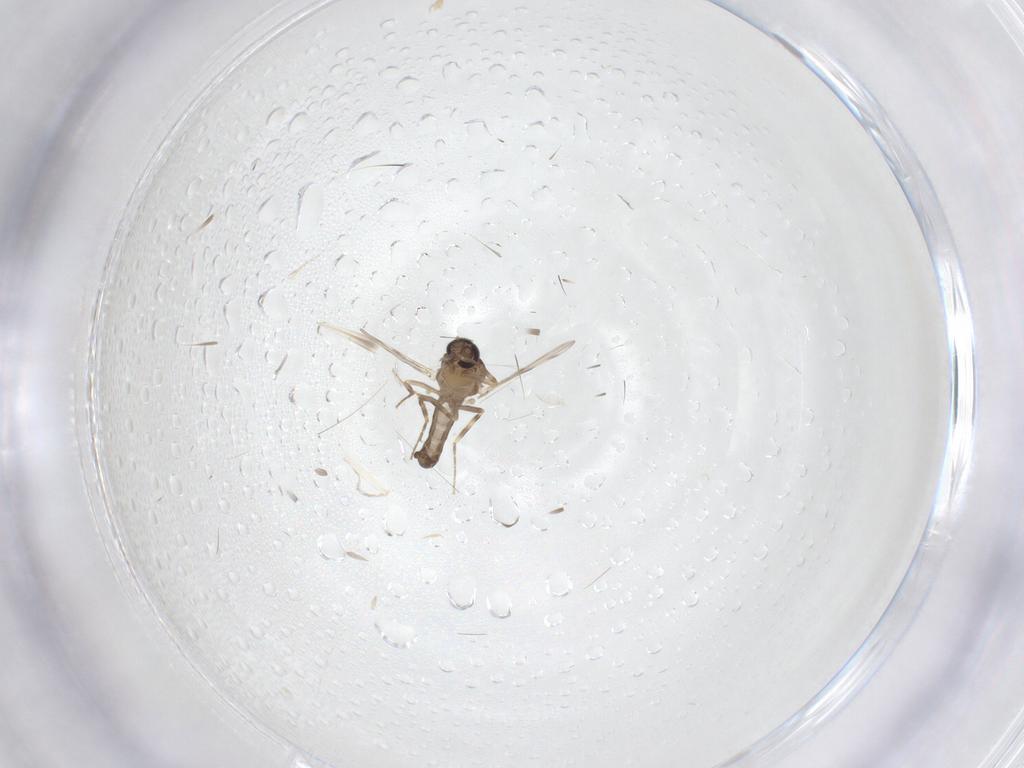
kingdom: Animalia
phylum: Arthropoda
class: Insecta
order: Diptera
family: Ceratopogonidae
